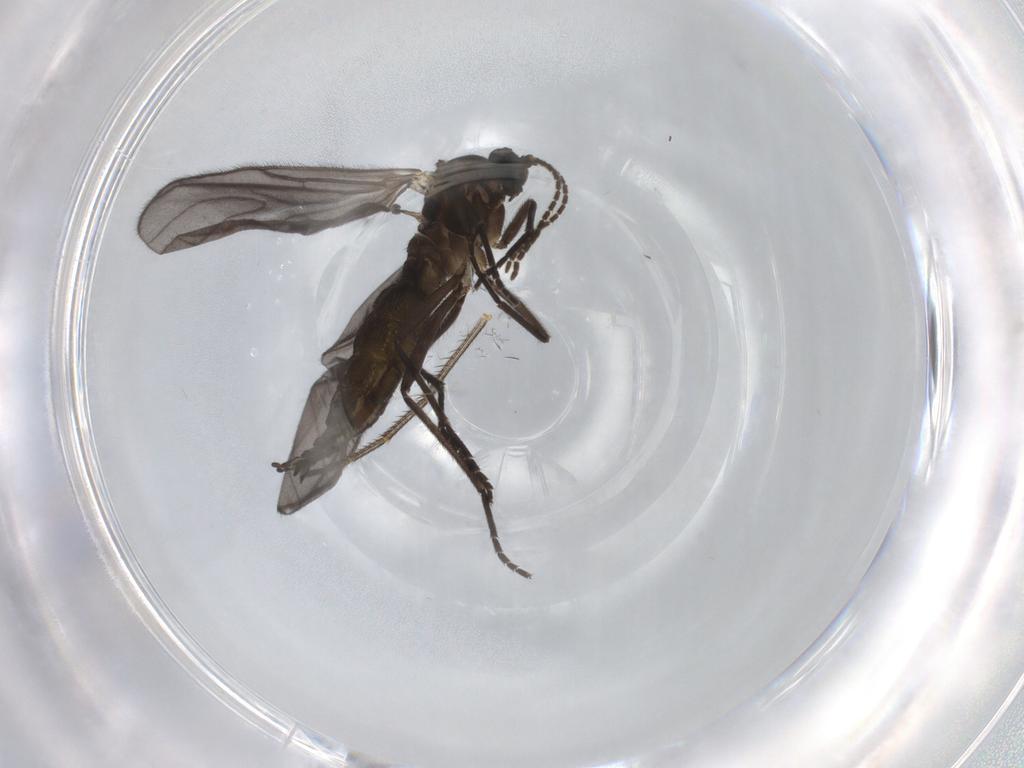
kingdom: Animalia
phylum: Arthropoda
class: Insecta
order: Diptera
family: Sciaridae
